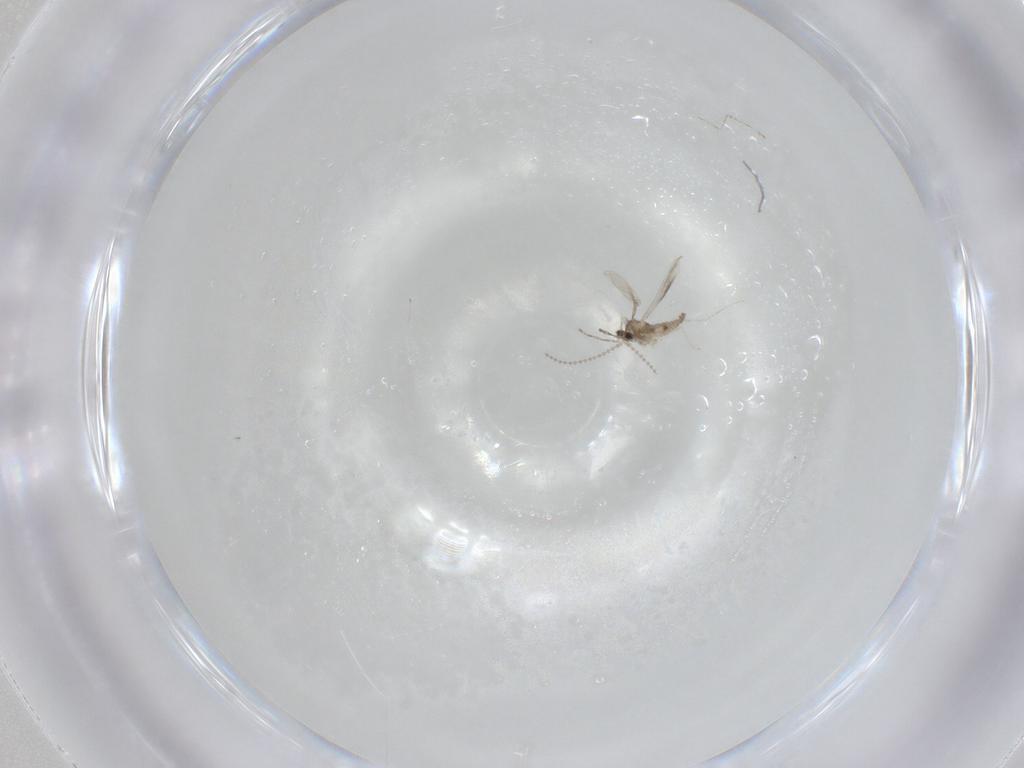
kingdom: Animalia
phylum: Arthropoda
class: Insecta
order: Diptera
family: Cecidomyiidae
